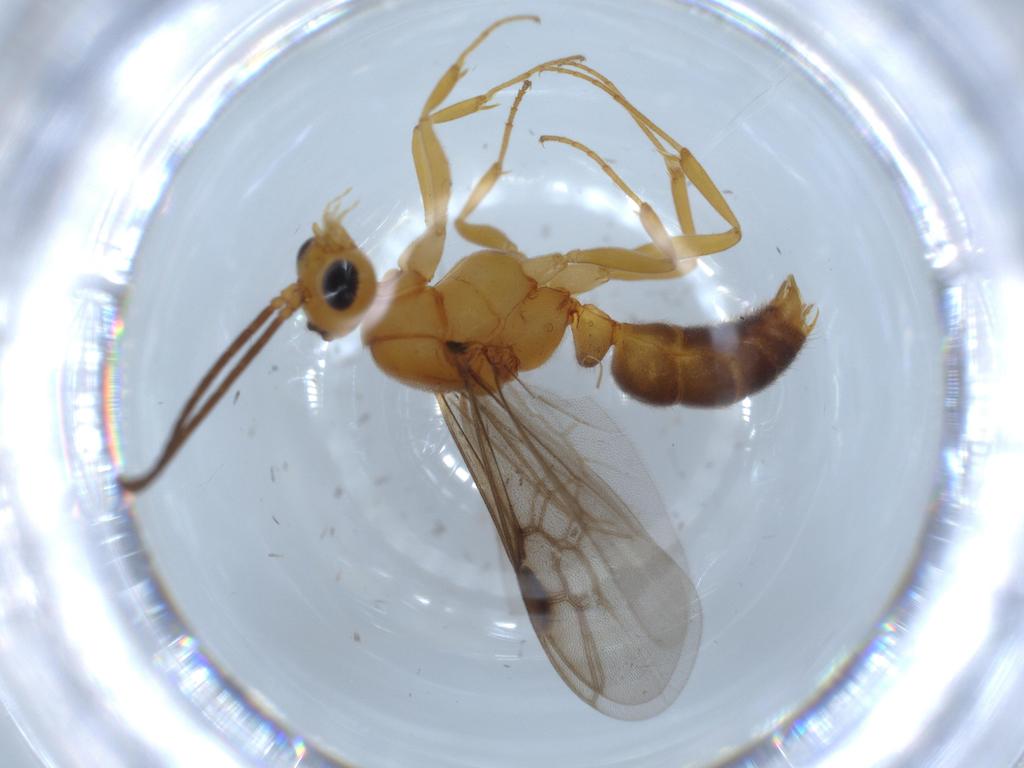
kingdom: Animalia
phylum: Arthropoda
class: Insecta
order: Hymenoptera
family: Formicidae
